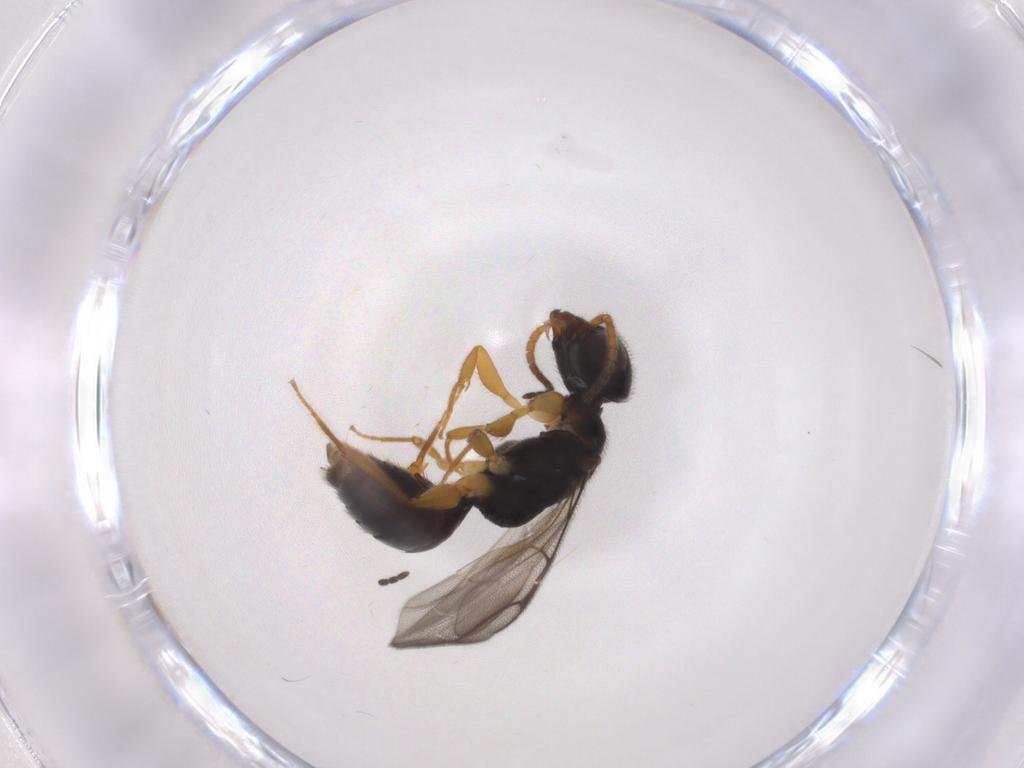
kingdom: Animalia
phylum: Arthropoda
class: Insecta
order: Hymenoptera
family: Bethylidae
